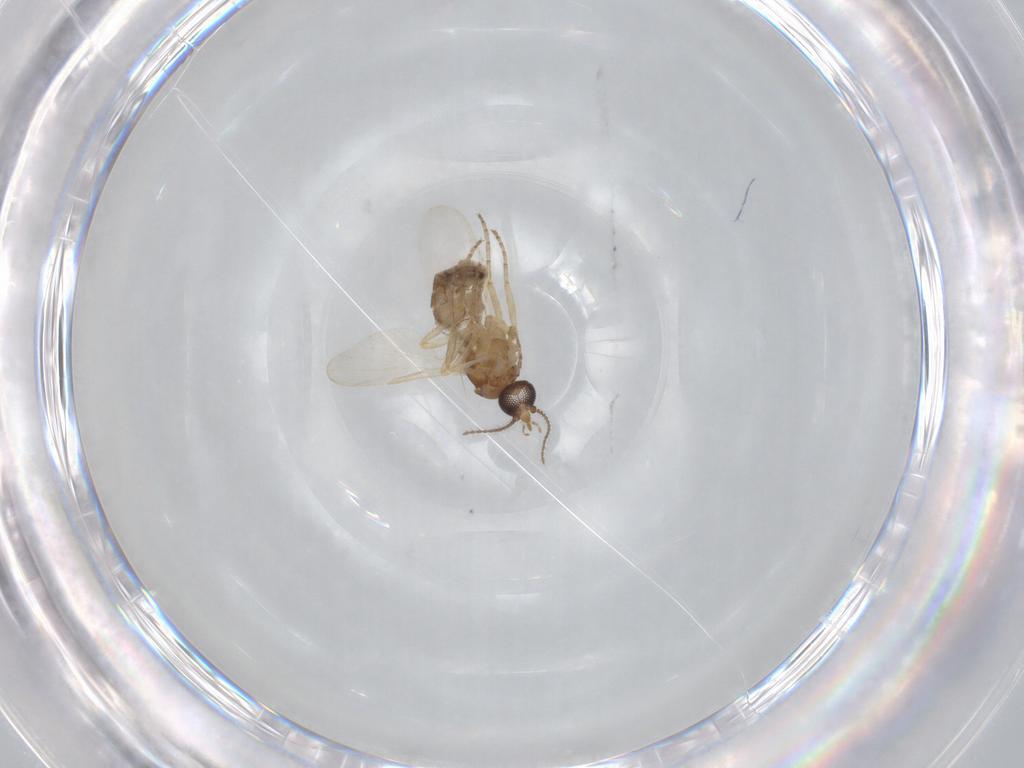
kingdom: Animalia
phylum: Arthropoda
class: Insecta
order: Diptera
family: Ceratopogonidae
